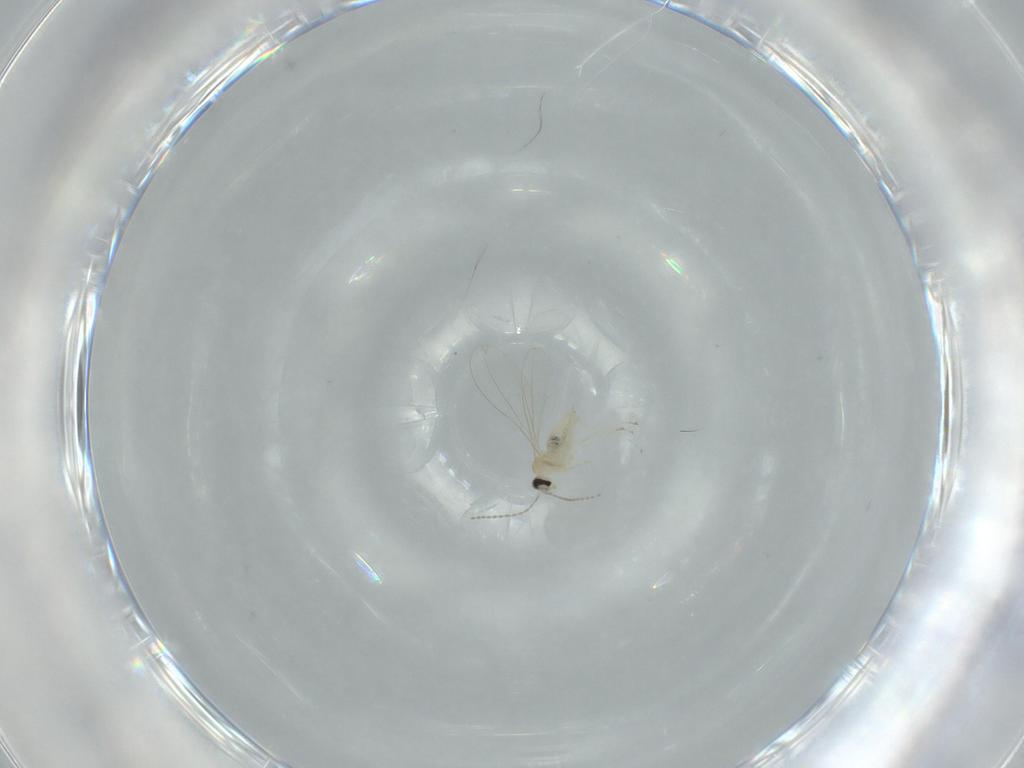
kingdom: Animalia
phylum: Arthropoda
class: Insecta
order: Diptera
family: Cecidomyiidae
